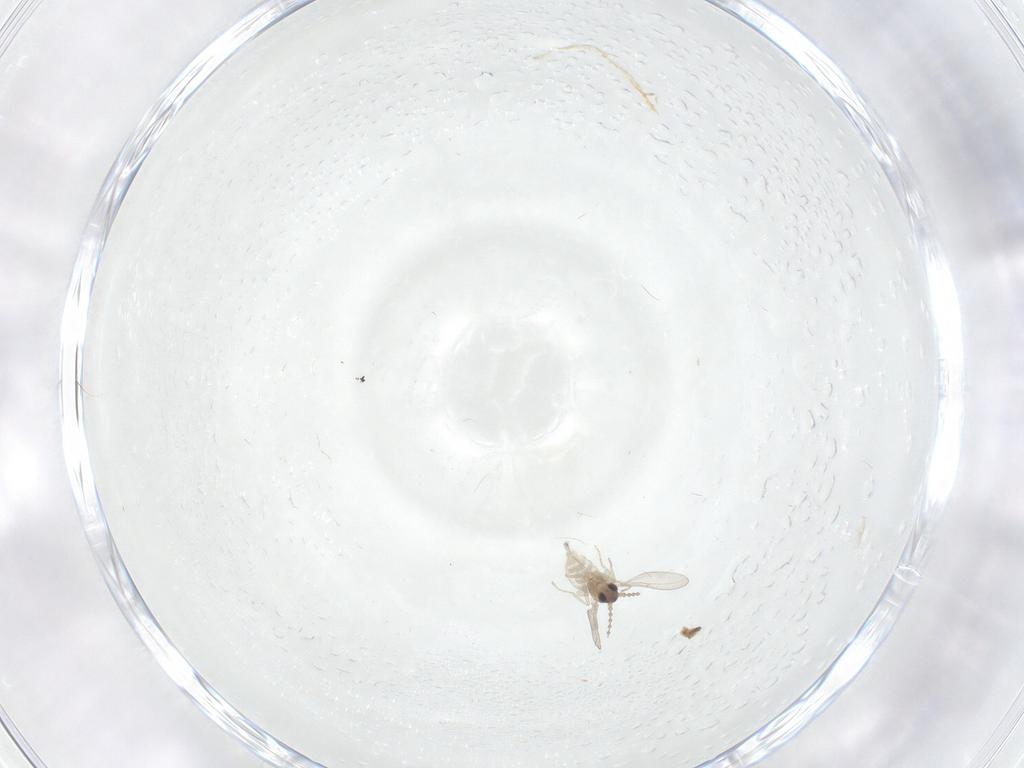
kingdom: Animalia
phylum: Arthropoda
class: Insecta
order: Diptera
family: Cecidomyiidae
